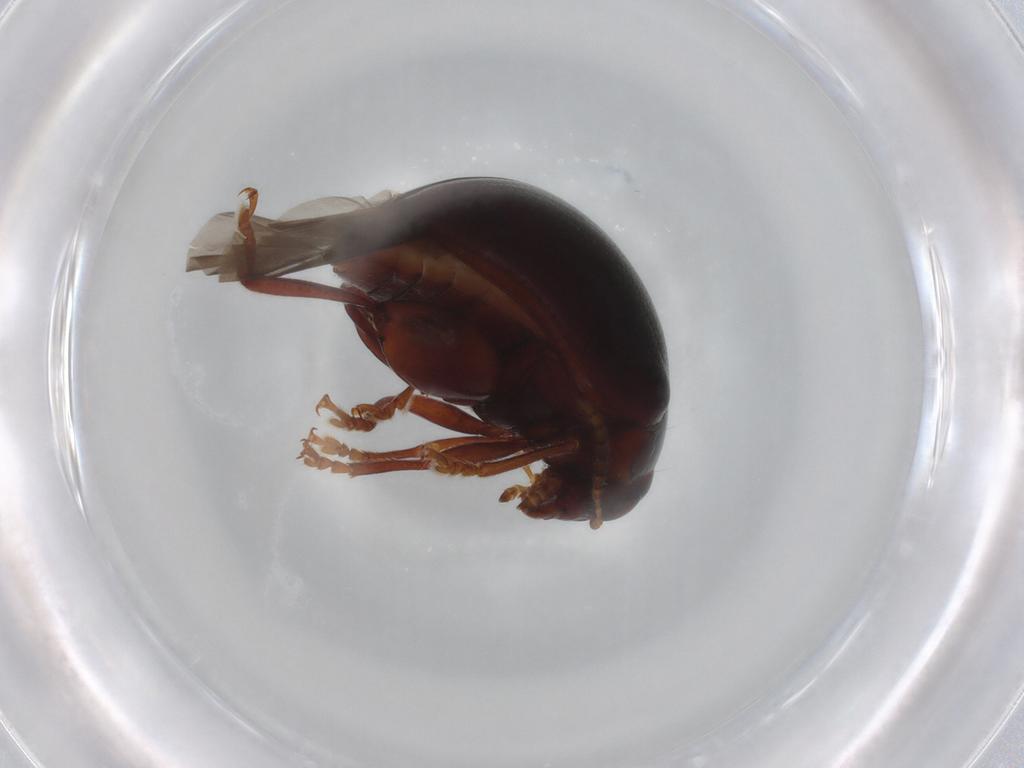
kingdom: Animalia
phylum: Arthropoda
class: Insecta
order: Coleoptera
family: Chrysomelidae
